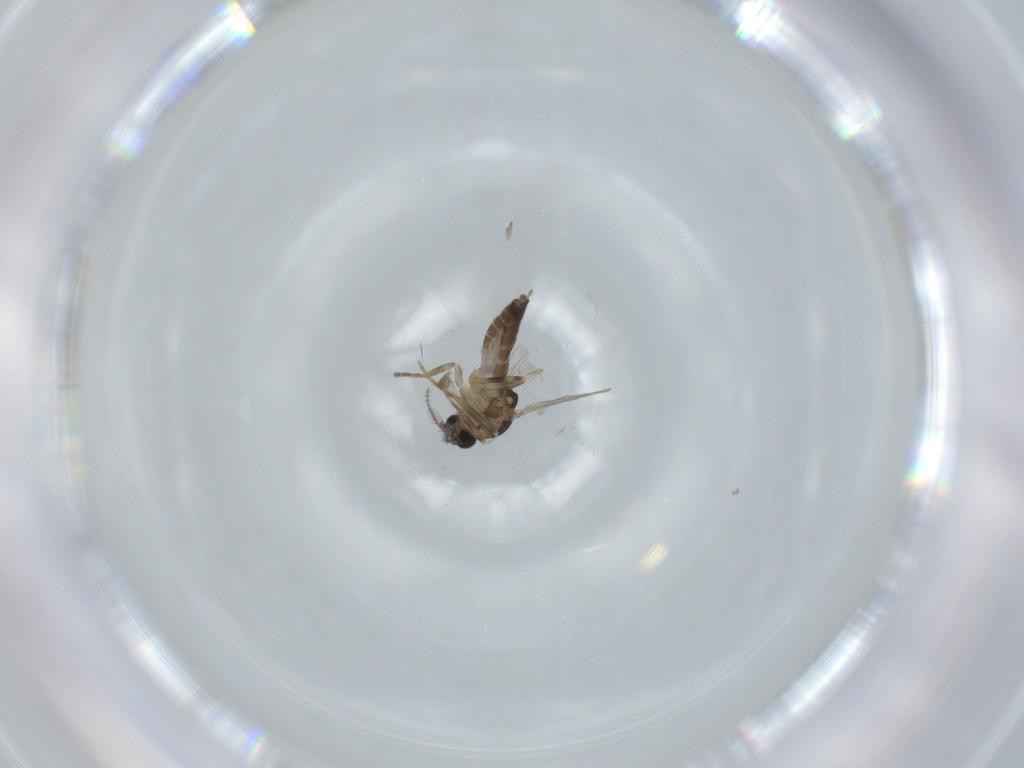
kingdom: Animalia
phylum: Arthropoda
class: Insecta
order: Diptera
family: Ceratopogonidae
